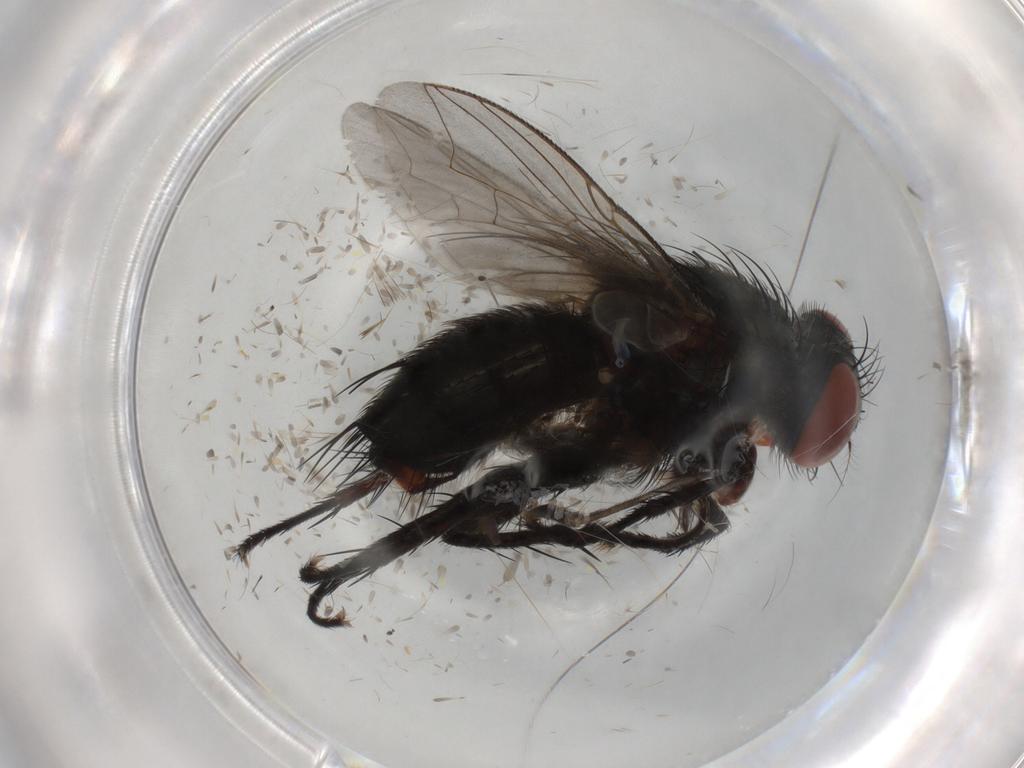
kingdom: Animalia
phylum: Arthropoda
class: Insecta
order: Diptera
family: Sarcophagidae
